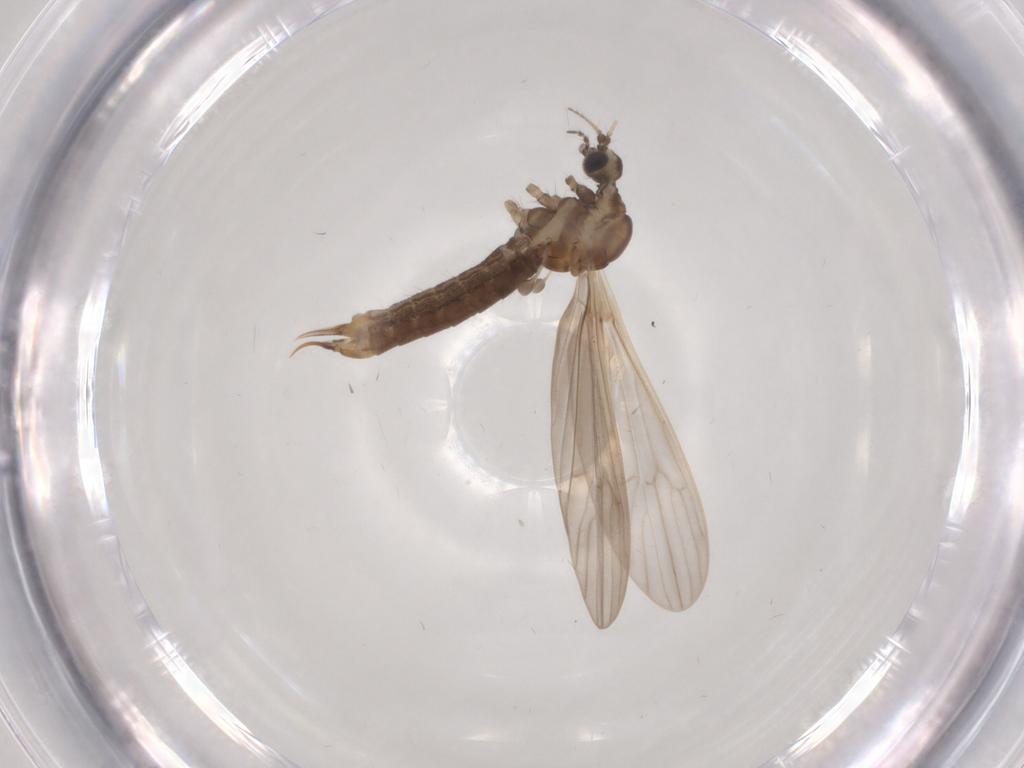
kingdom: Animalia
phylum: Arthropoda
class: Insecta
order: Diptera
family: Limoniidae
